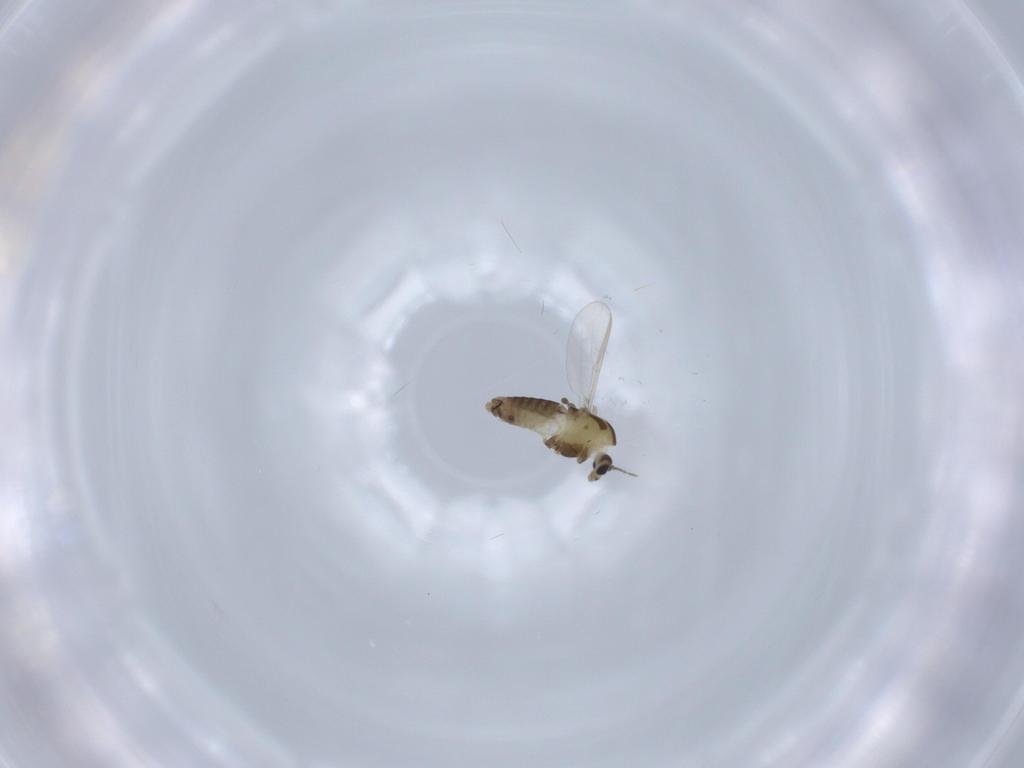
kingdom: Animalia
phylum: Arthropoda
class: Insecta
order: Diptera
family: Chironomidae
